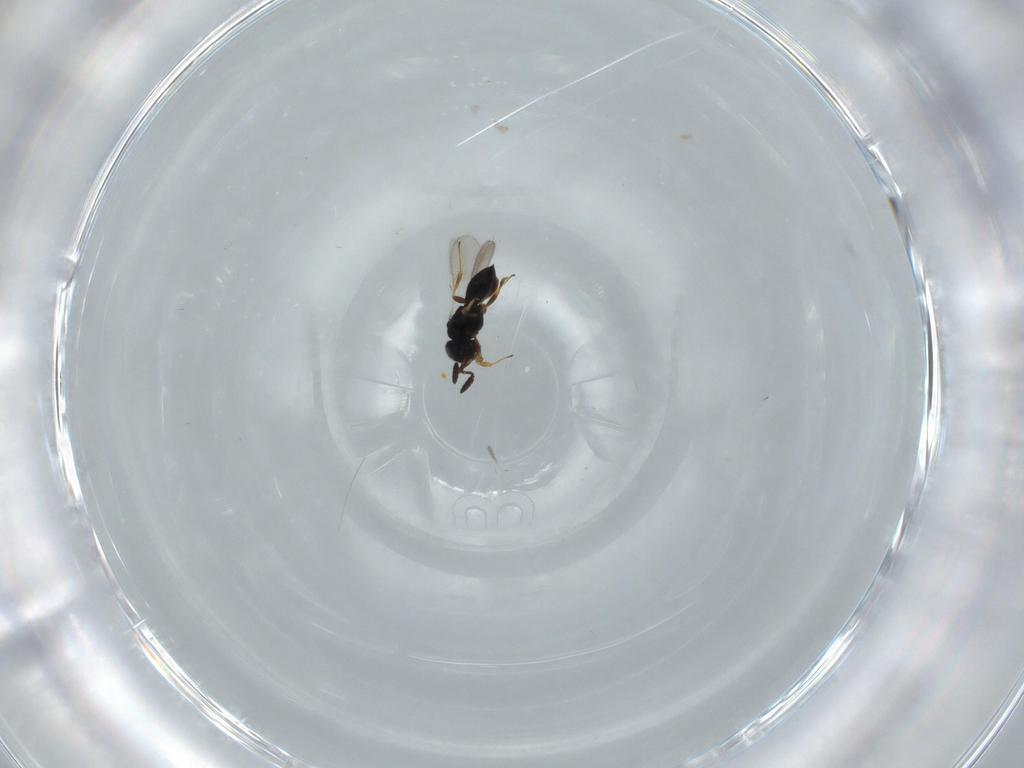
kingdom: Animalia
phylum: Arthropoda
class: Insecta
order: Hymenoptera
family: Scelionidae
